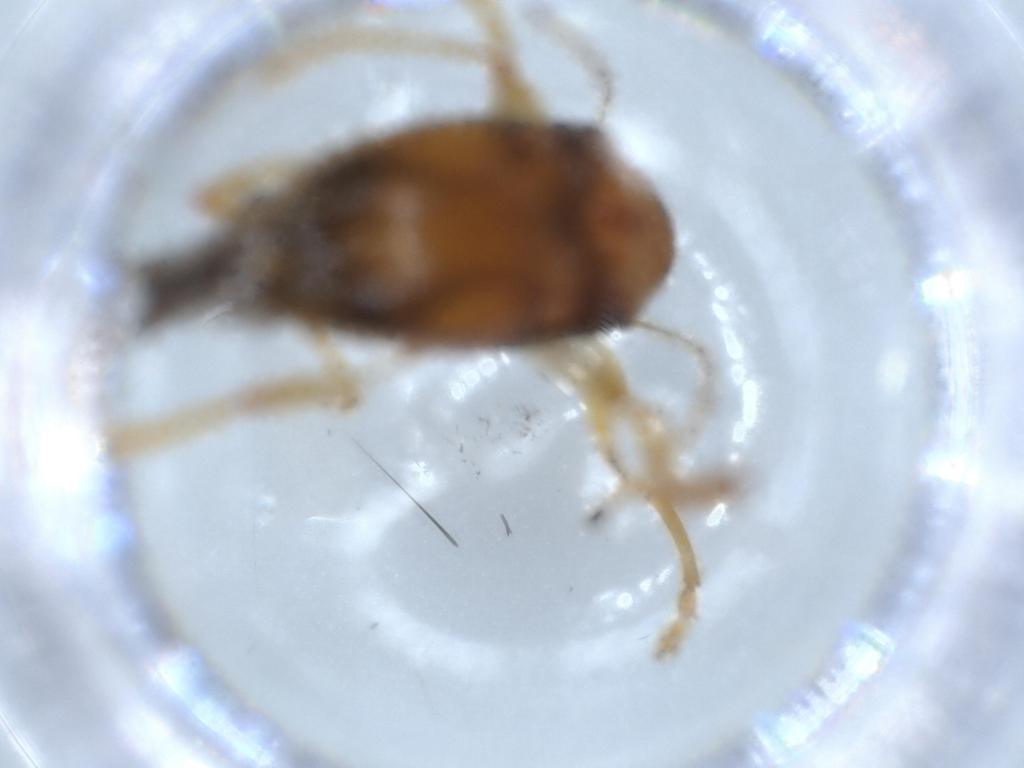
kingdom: Animalia
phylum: Arthropoda
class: Insecta
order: Coleoptera
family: Chrysomelidae
